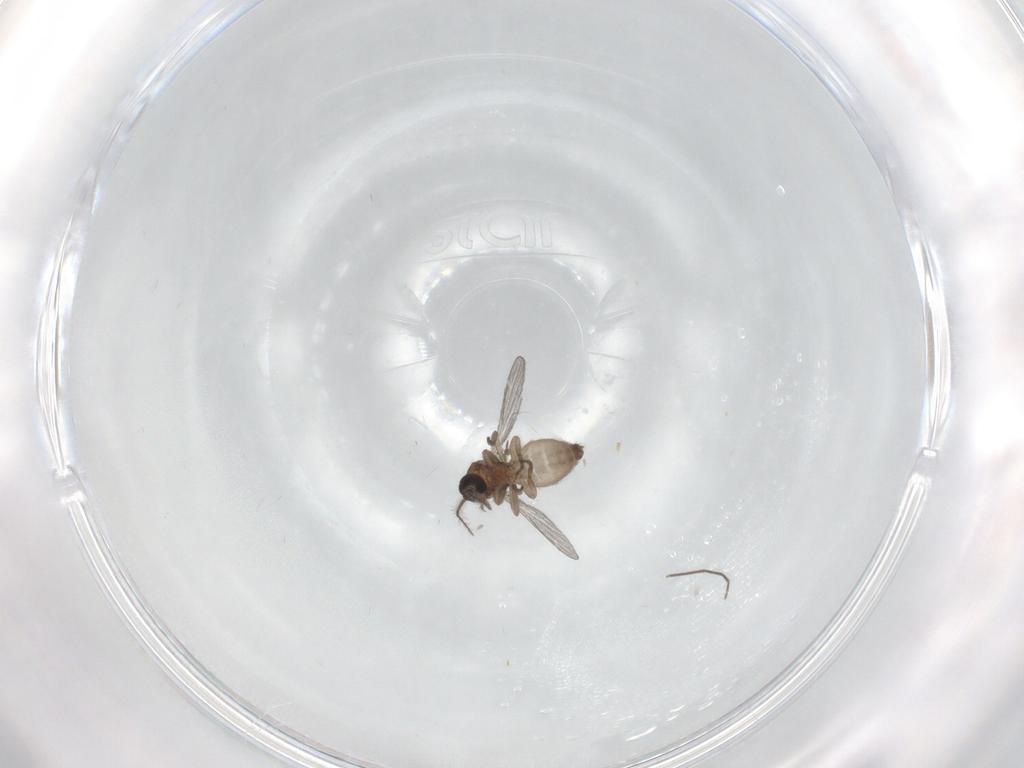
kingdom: Animalia
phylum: Arthropoda
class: Insecta
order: Diptera
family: Chironomidae
